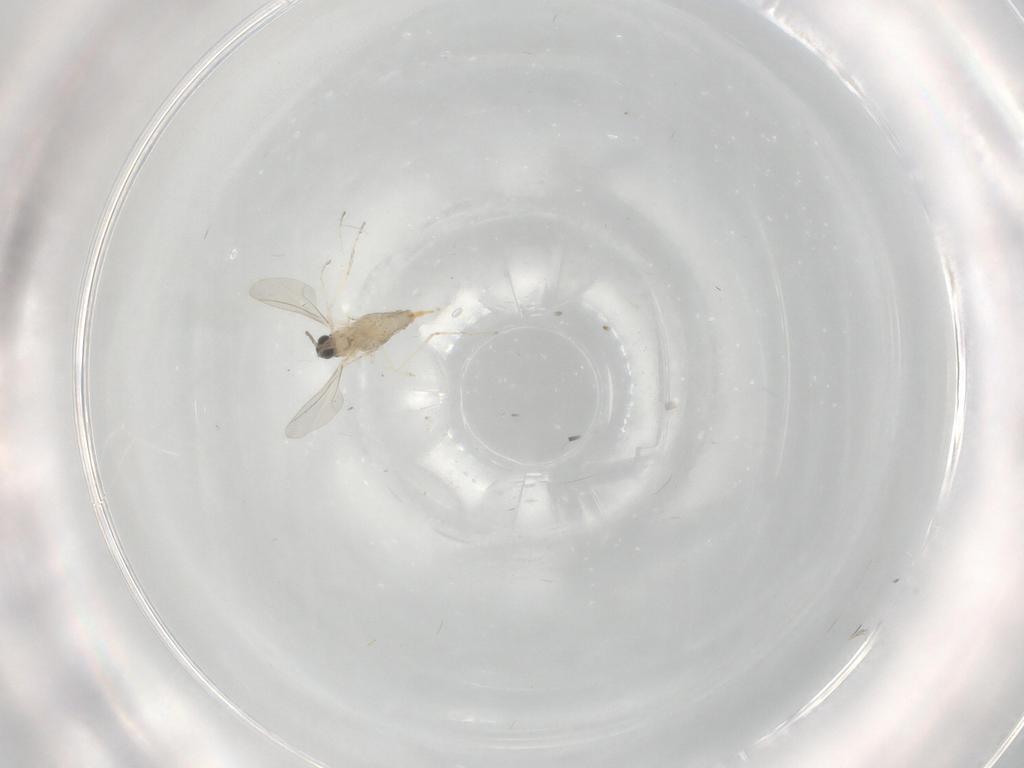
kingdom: Animalia
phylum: Arthropoda
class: Insecta
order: Diptera
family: Cecidomyiidae
